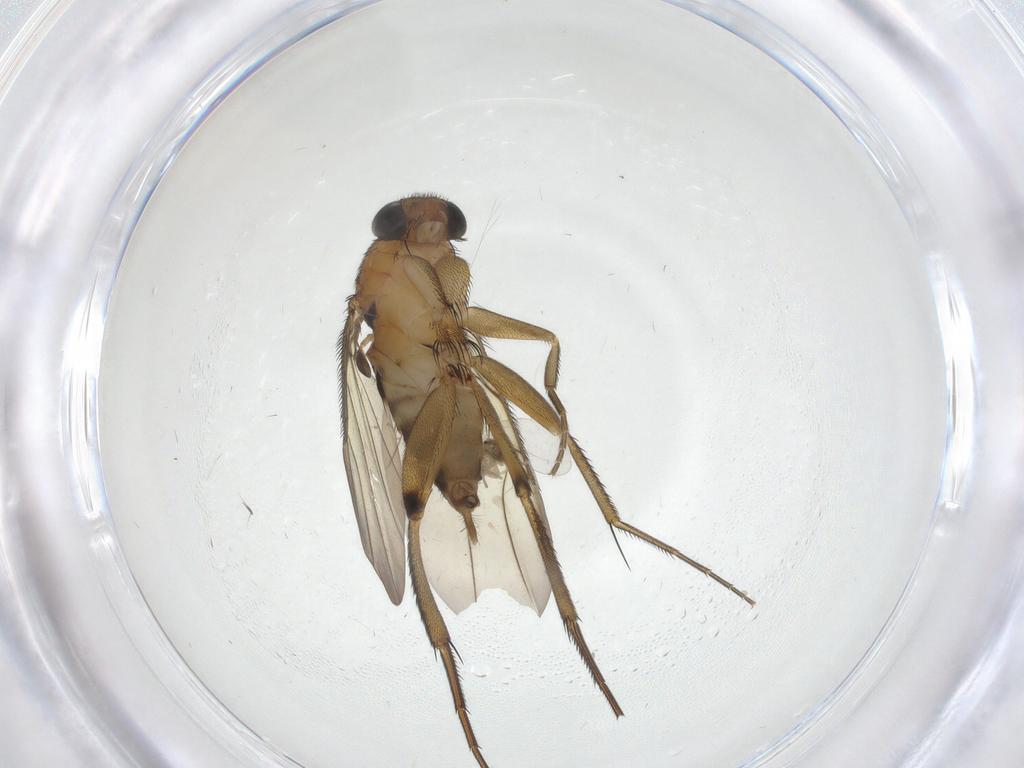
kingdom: Animalia
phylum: Arthropoda
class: Insecta
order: Diptera
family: Cecidomyiidae
